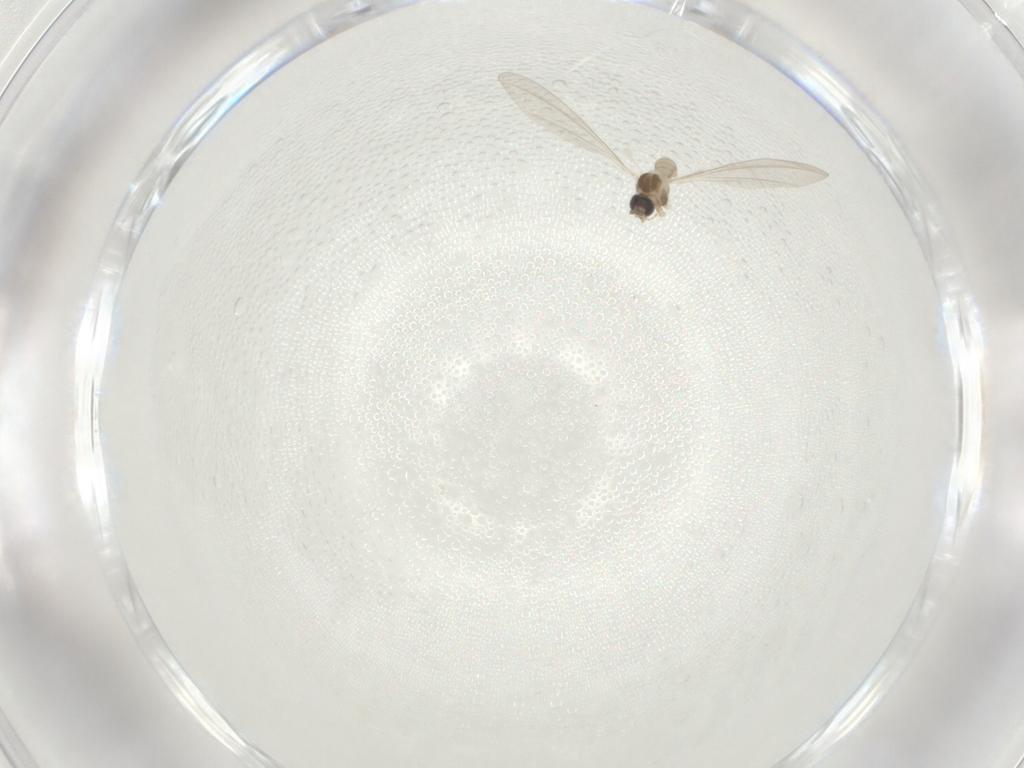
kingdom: Animalia
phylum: Arthropoda
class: Insecta
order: Diptera
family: Cecidomyiidae
